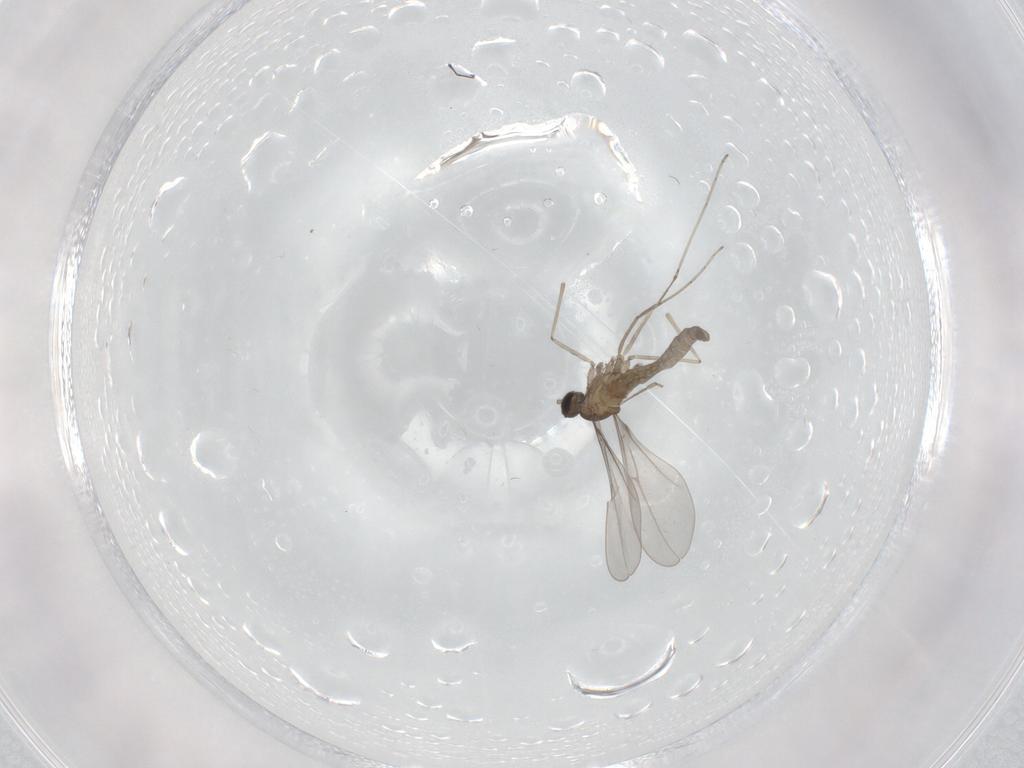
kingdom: Animalia
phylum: Arthropoda
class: Insecta
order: Diptera
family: Cecidomyiidae
